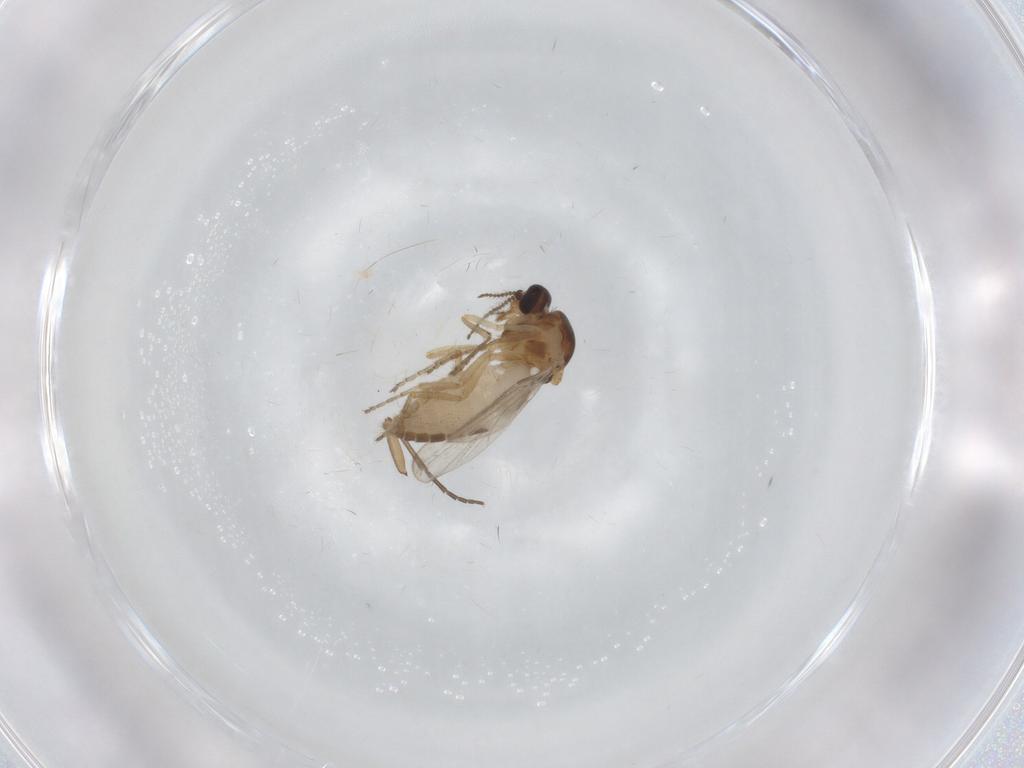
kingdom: Animalia
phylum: Arthropoda
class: Insecta
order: Diptera
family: Ceratopogonidae
